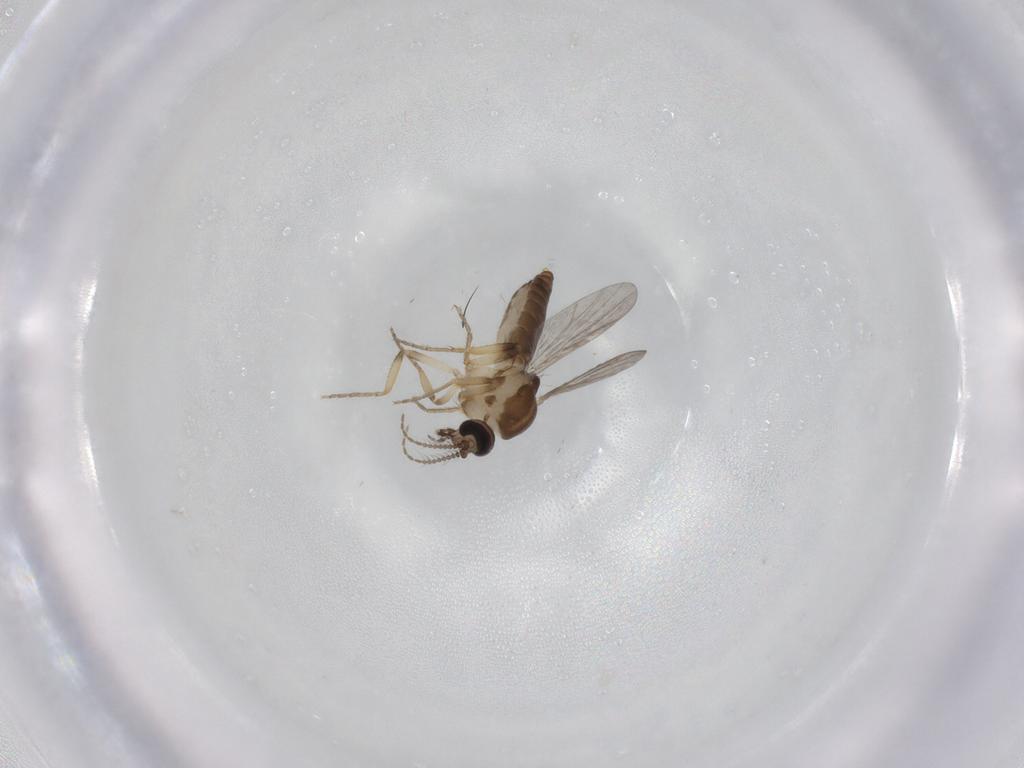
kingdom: Animalia
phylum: Arthropoda
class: Insecta
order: Diptera
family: Ceratopogonidae
